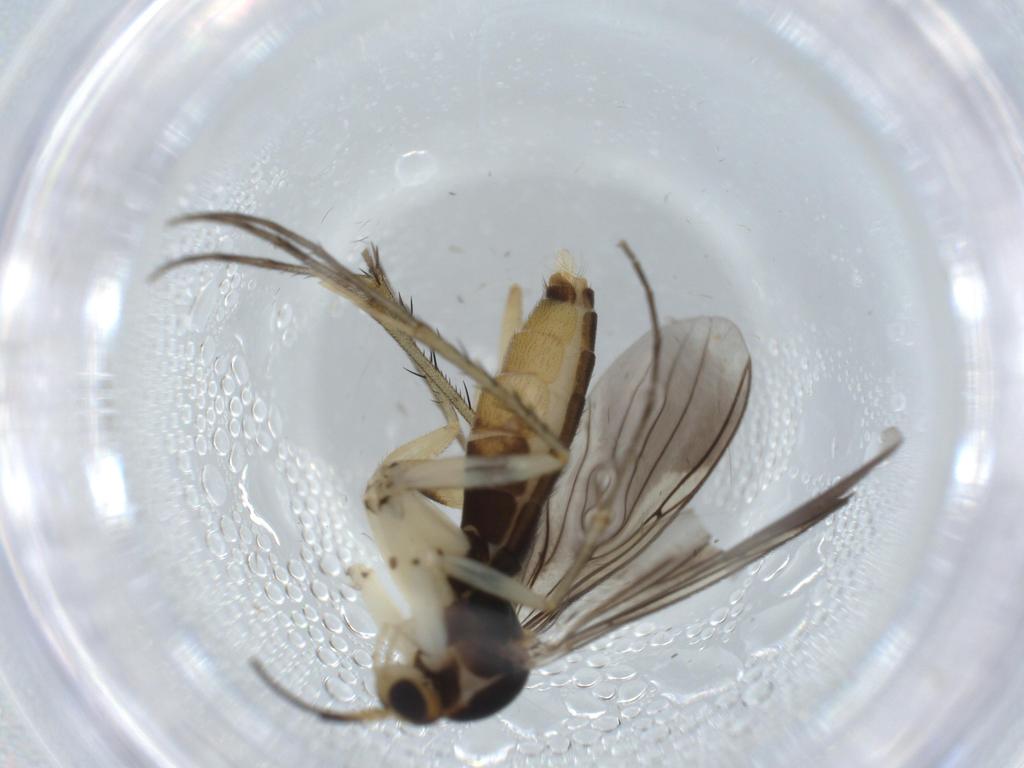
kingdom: Animalia
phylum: Arthropoda
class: Insecta
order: Diptera
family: Mycetophilidae
